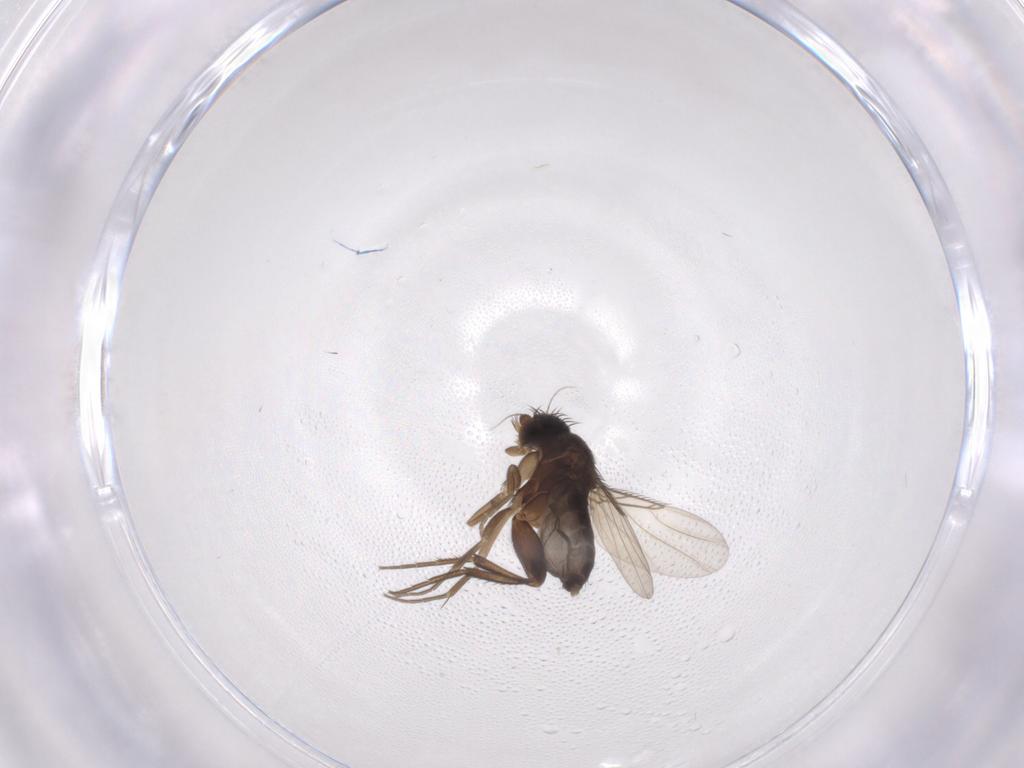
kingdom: Animalia
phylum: Arthropoda
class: Insecta
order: Diptera
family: Phoridae
